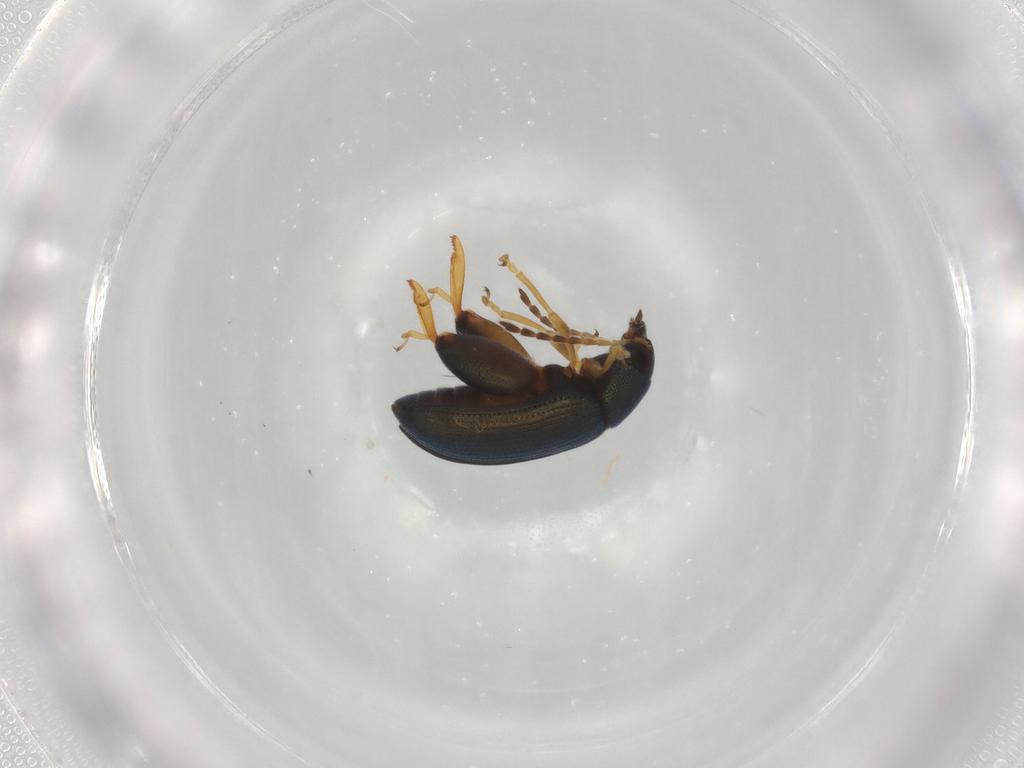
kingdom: Animalia
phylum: Arthropoda
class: Insecta
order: Coleoptera
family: Chrysomelidae
